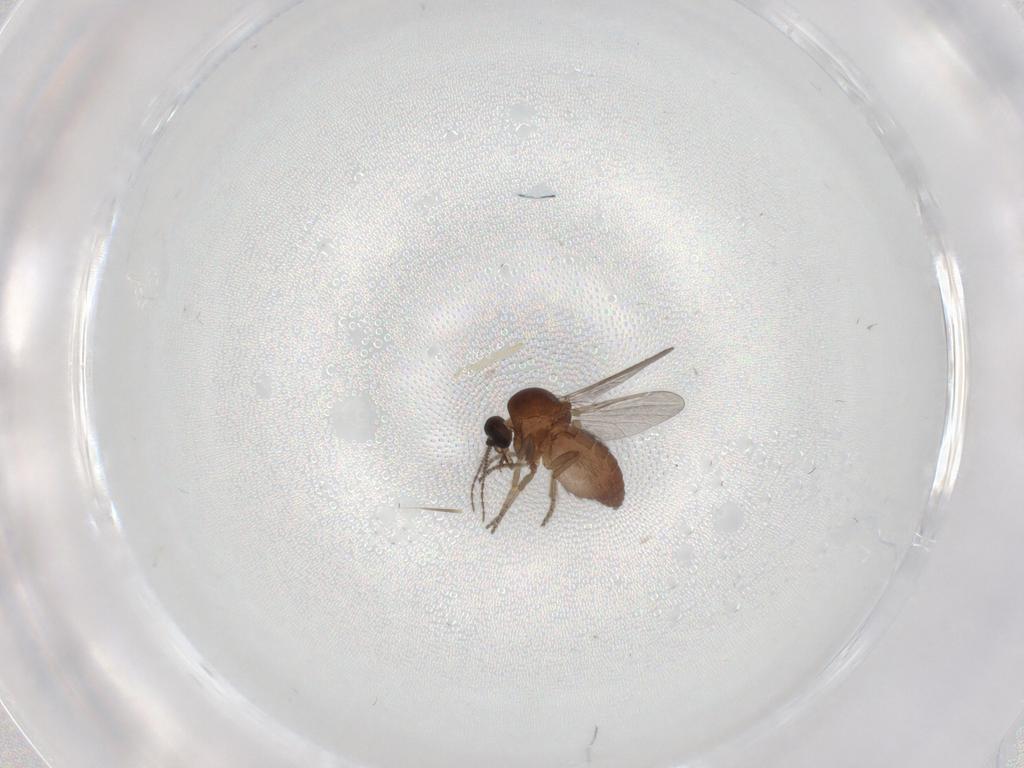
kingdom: Animalia
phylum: Arthropoda
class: Insecta
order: Diptera
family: Ceratopogonidae
